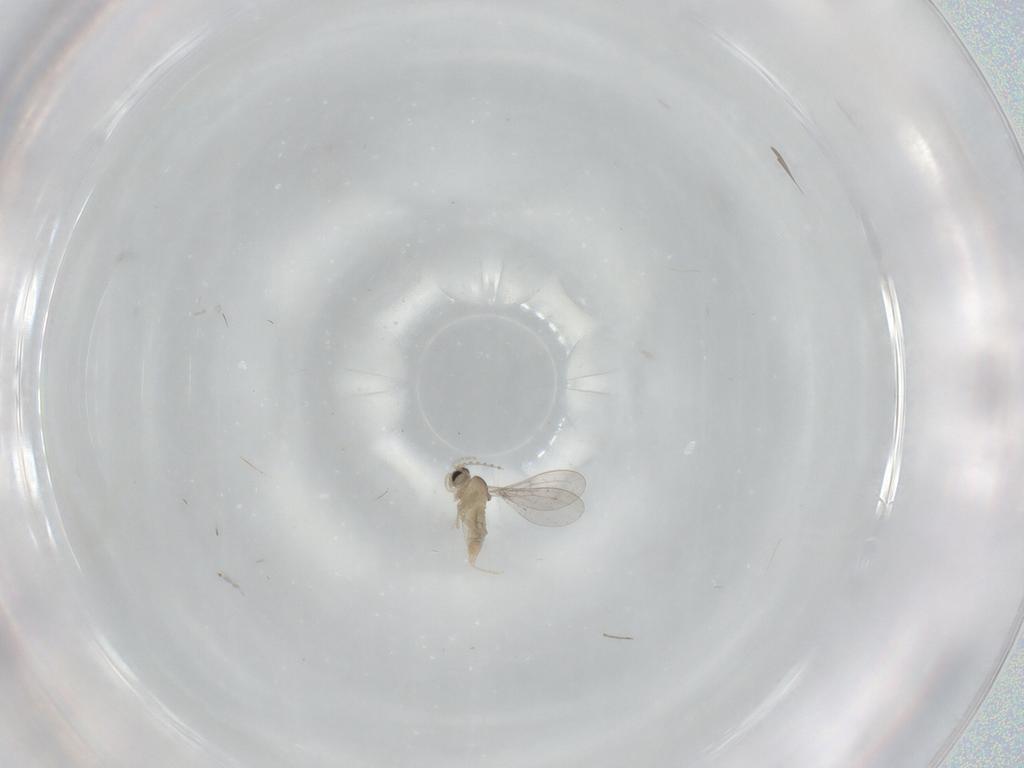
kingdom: Animalia
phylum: Arthropoda
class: Insecta
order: Diptera
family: Cecidomyiidae
